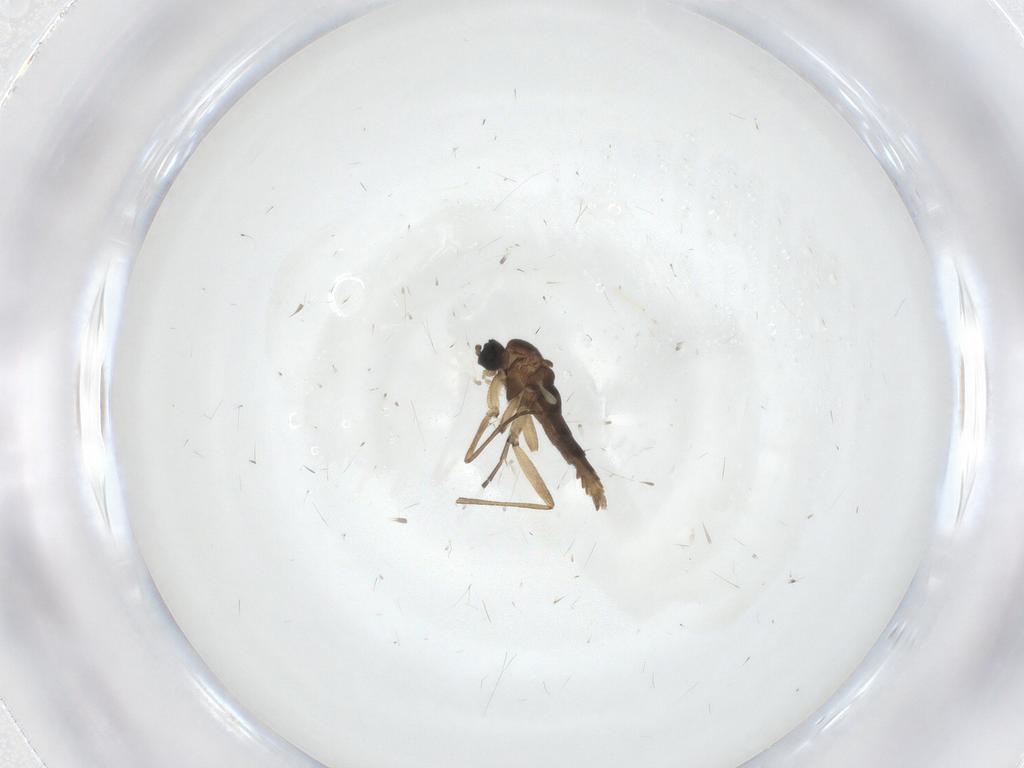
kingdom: Animalia
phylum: Arthropoda
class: Insecta
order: Diptera
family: Sciaridae
